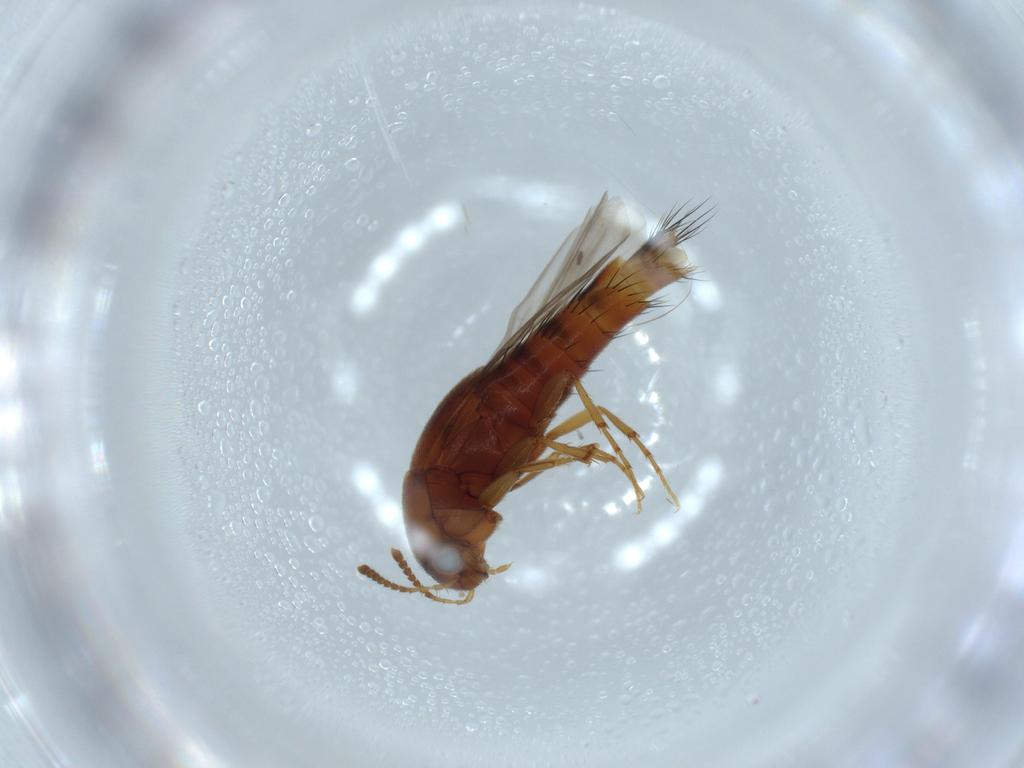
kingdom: Animalia
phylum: Arthropoda
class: Insecta
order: Coleoptera
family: Staphylinidae
